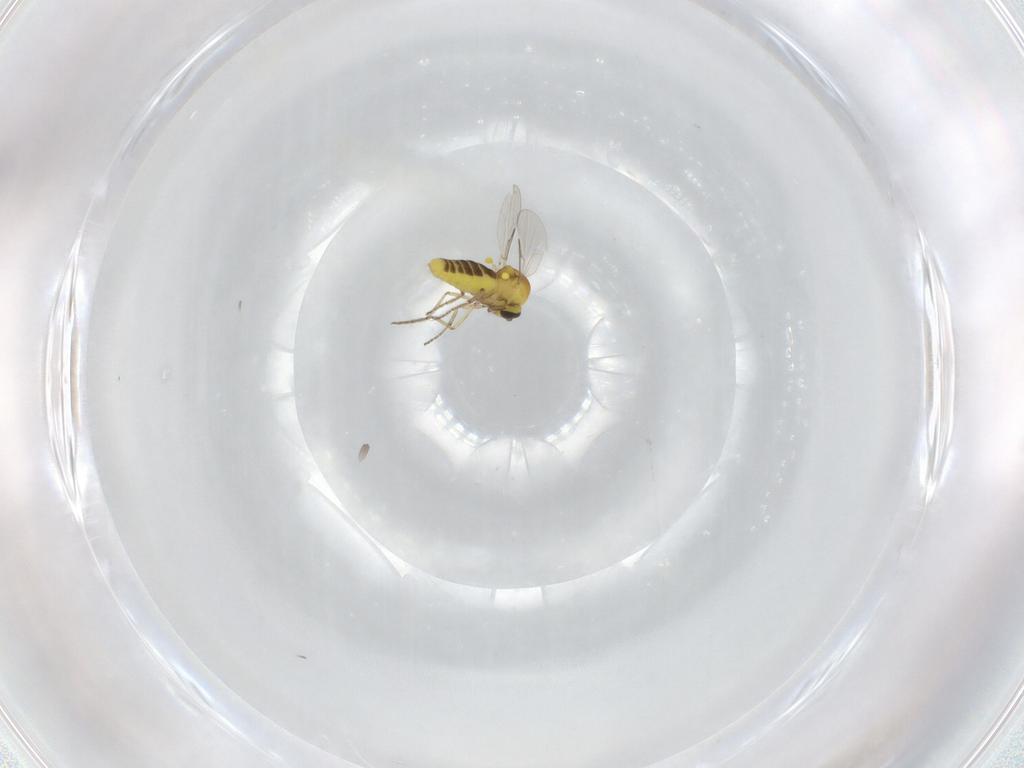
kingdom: Animalia
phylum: Arthropoda
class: Insecta
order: Diptera
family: Ceratopogonidae
